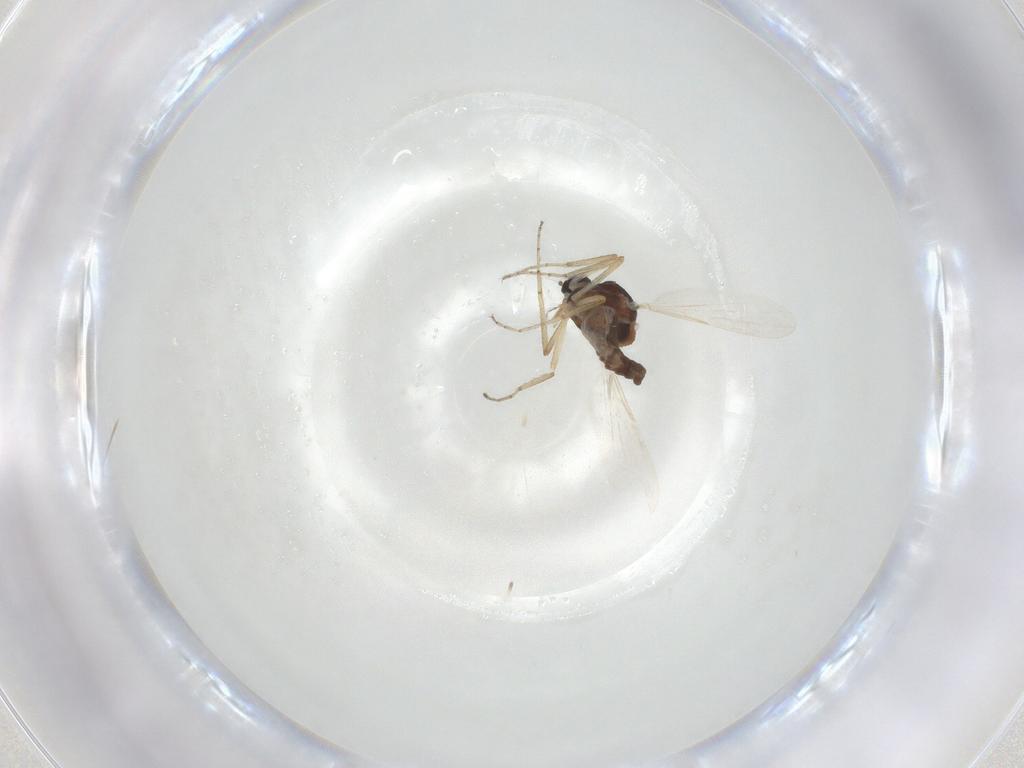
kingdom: Animalia
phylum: Arthropoda
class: Insecta
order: Diptera
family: Ceratopogonidae
